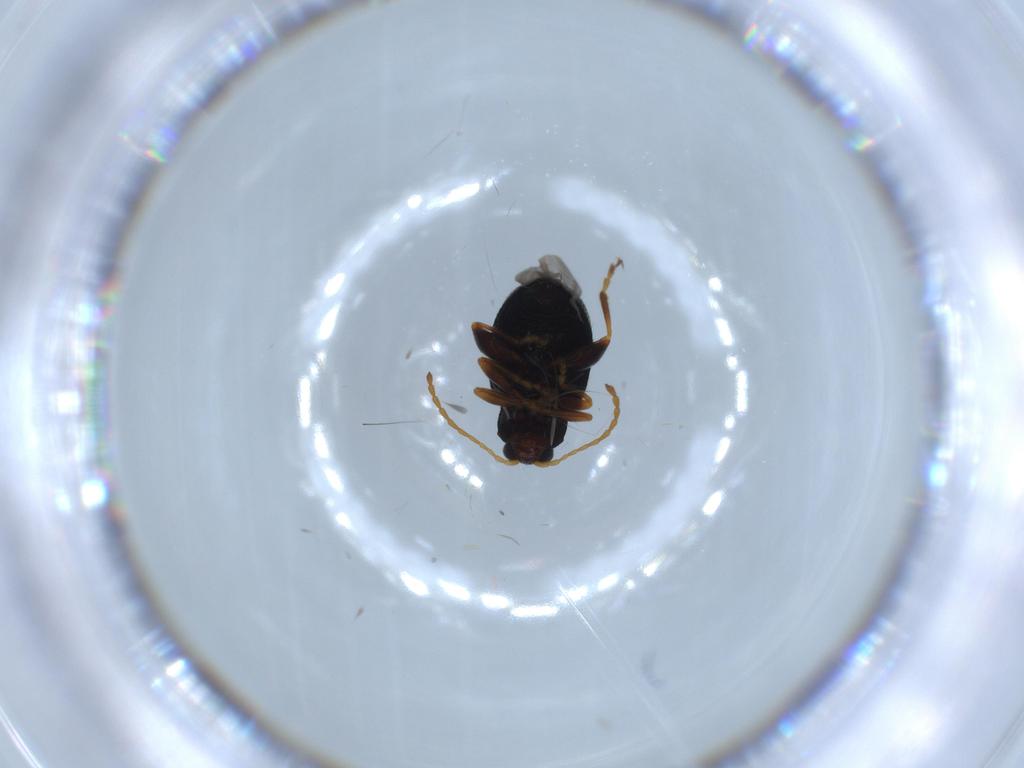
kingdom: Animalia
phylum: Arthropoda
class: Insecta
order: Coleoptera
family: Chrysomelidae
